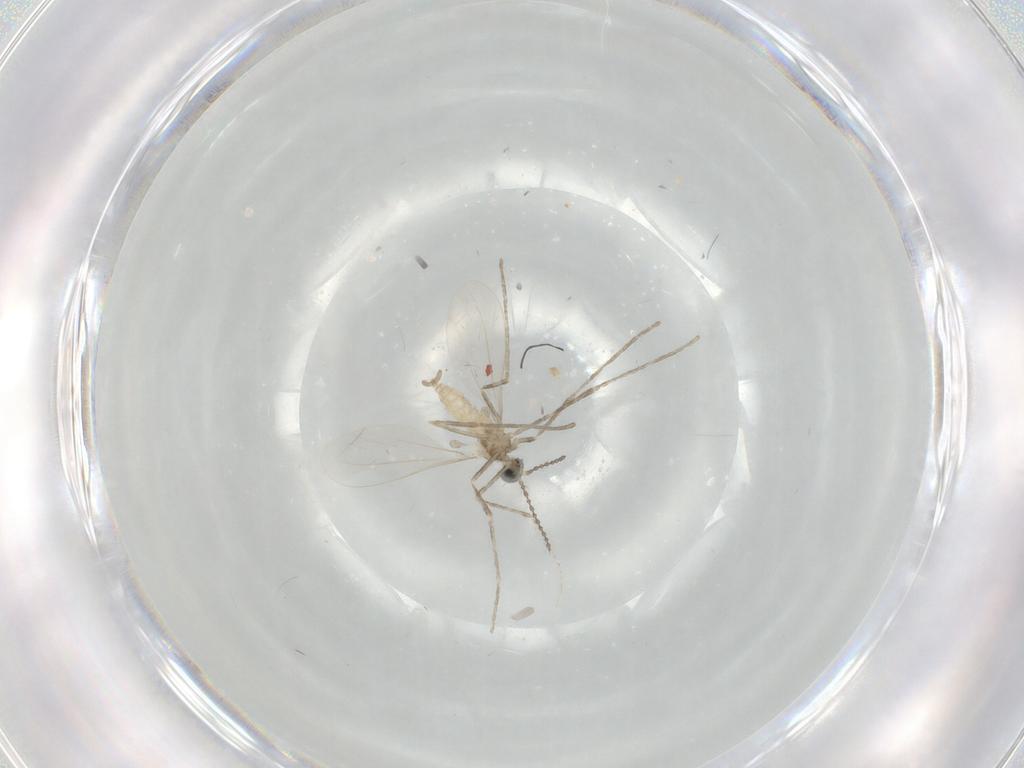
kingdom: Animalia
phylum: Arthropoda
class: Insecta
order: Diptera
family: Cecidomyiidae
